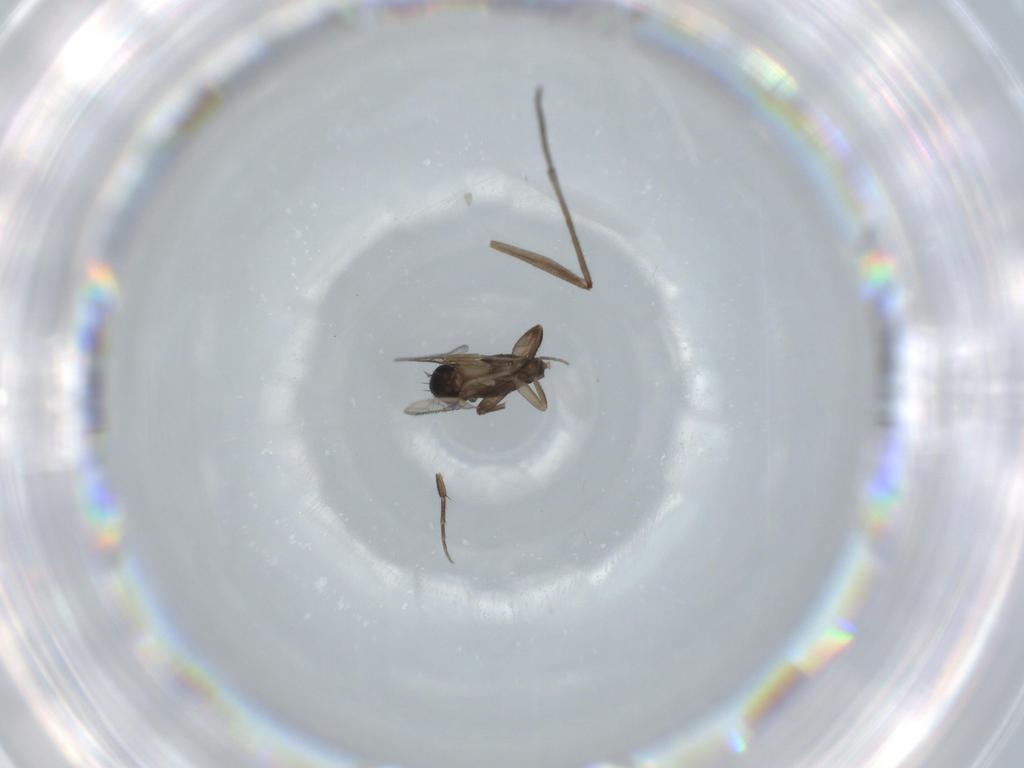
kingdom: Animalia
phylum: Arthropoda
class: Insecta
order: Diptera
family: Phoridae
